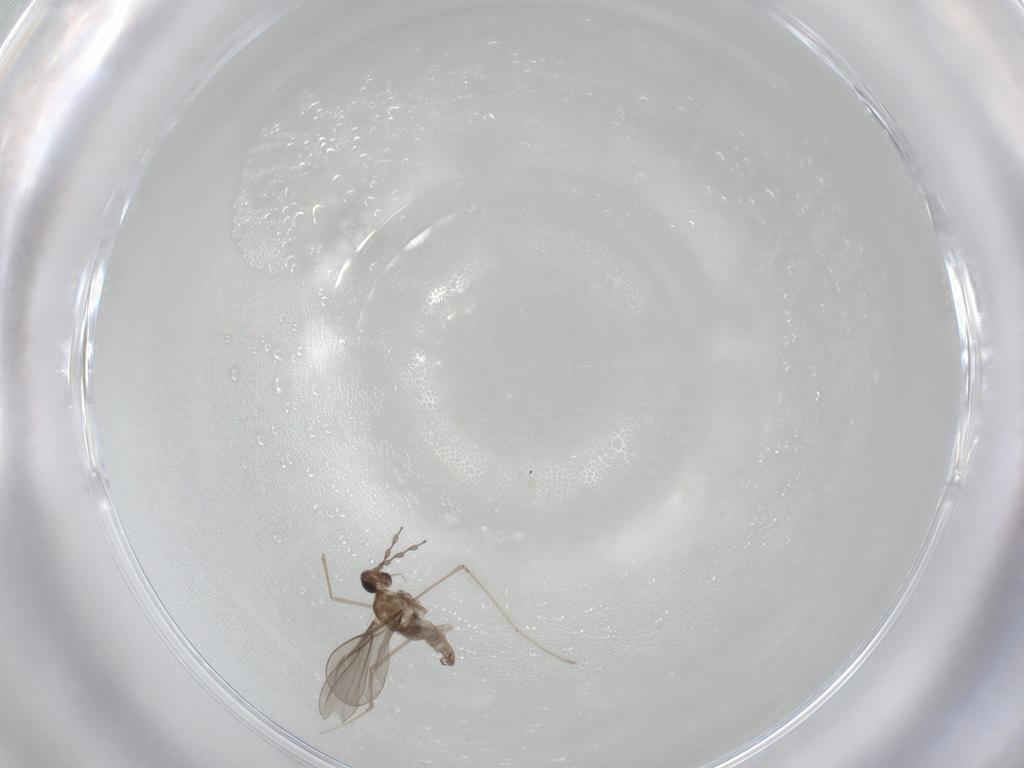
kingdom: Animalia
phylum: Arthropoda
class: Insecta
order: Diptera
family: Cecidomyiidae
